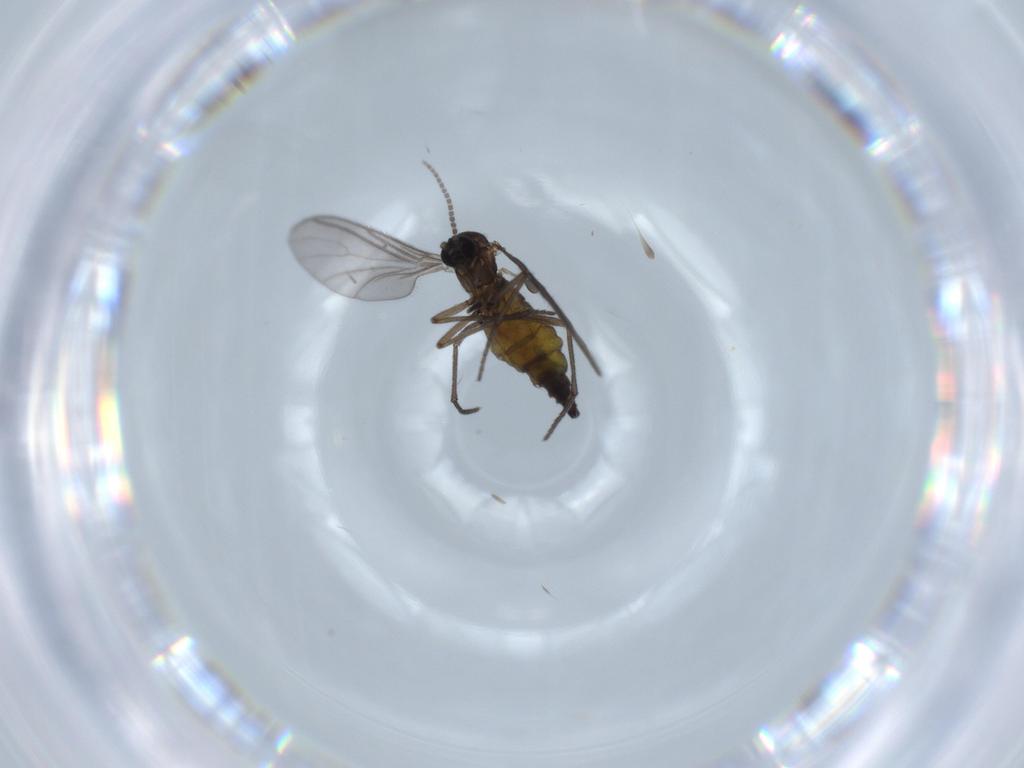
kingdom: Animalia
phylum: Arthropoda
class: Insecta
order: Diptera
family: Sciaridae
